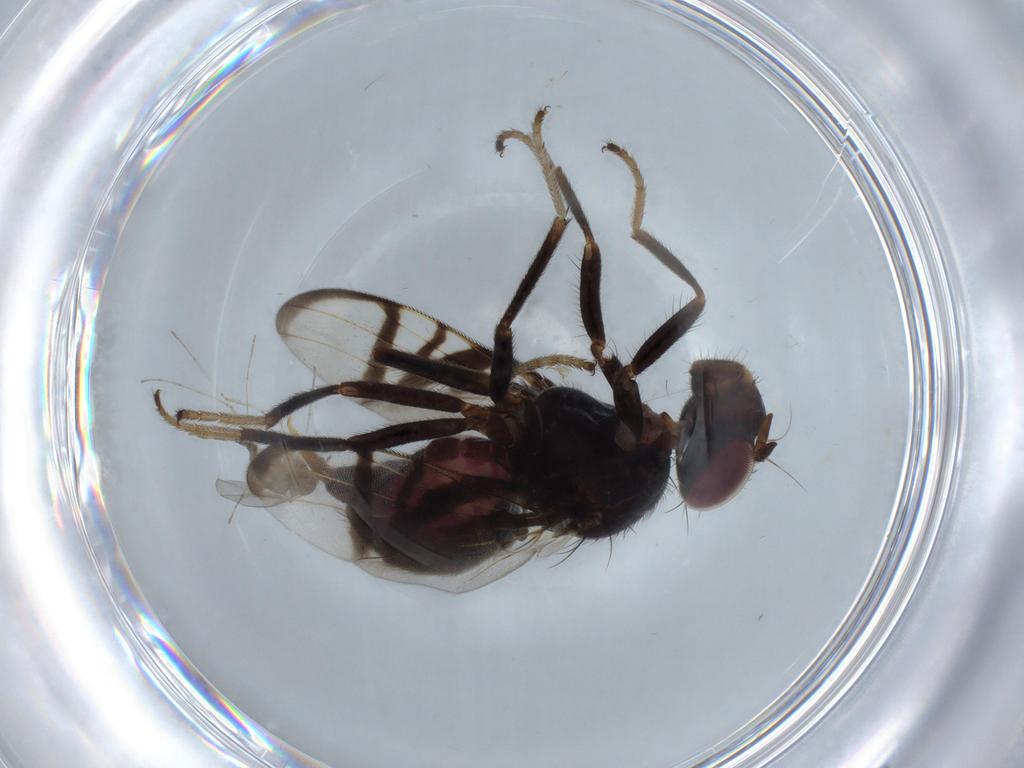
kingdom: Animalia
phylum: Arthropoda
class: Insecta
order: Diptera
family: Dolichopodidae
